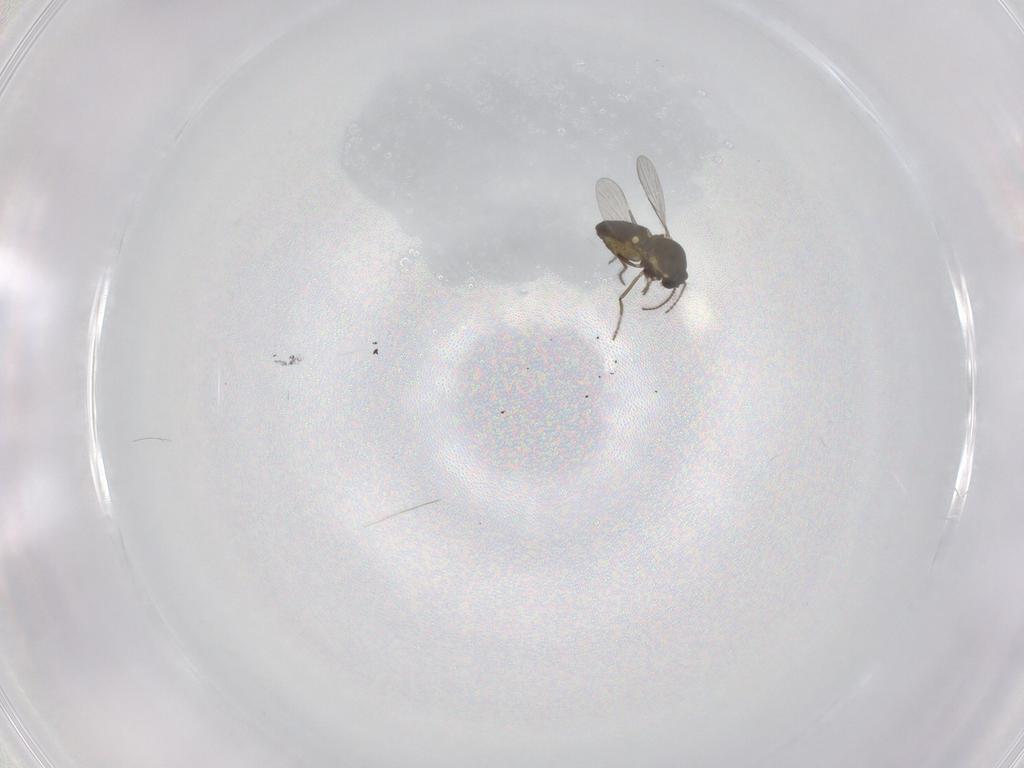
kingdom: Animalia
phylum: Arthropoda
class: Insecta
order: Diptera
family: Ceratopogonidae
